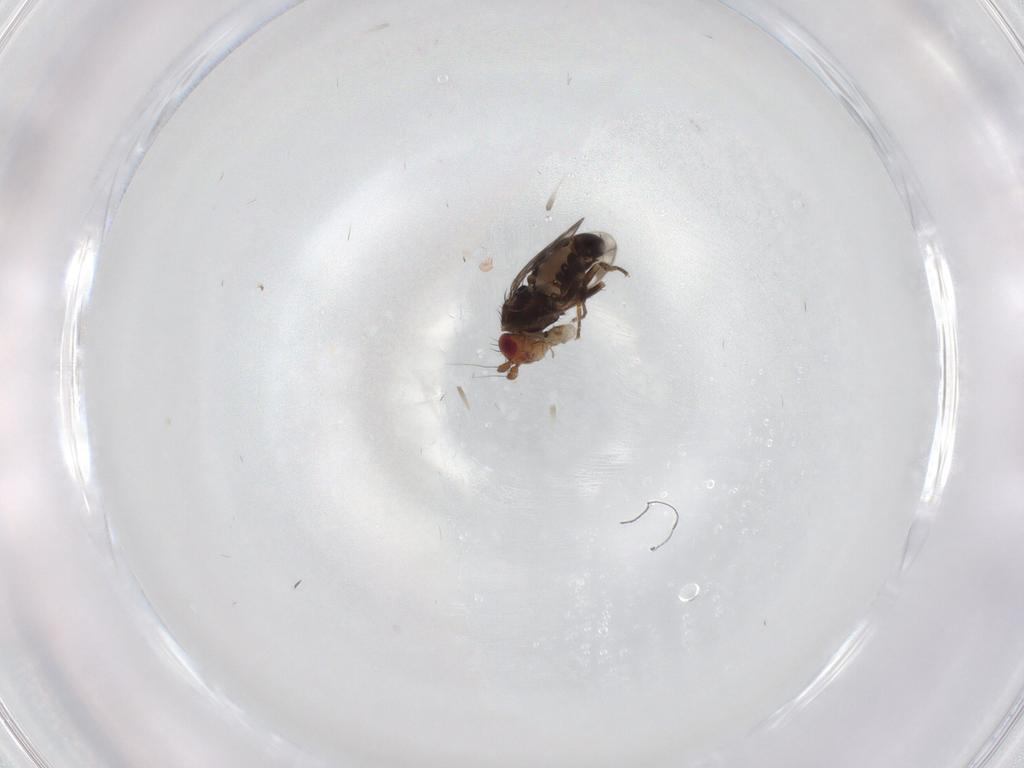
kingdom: Animalia
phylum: Arthropoda
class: Insecta
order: Diptera
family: Sphaeroceridae
